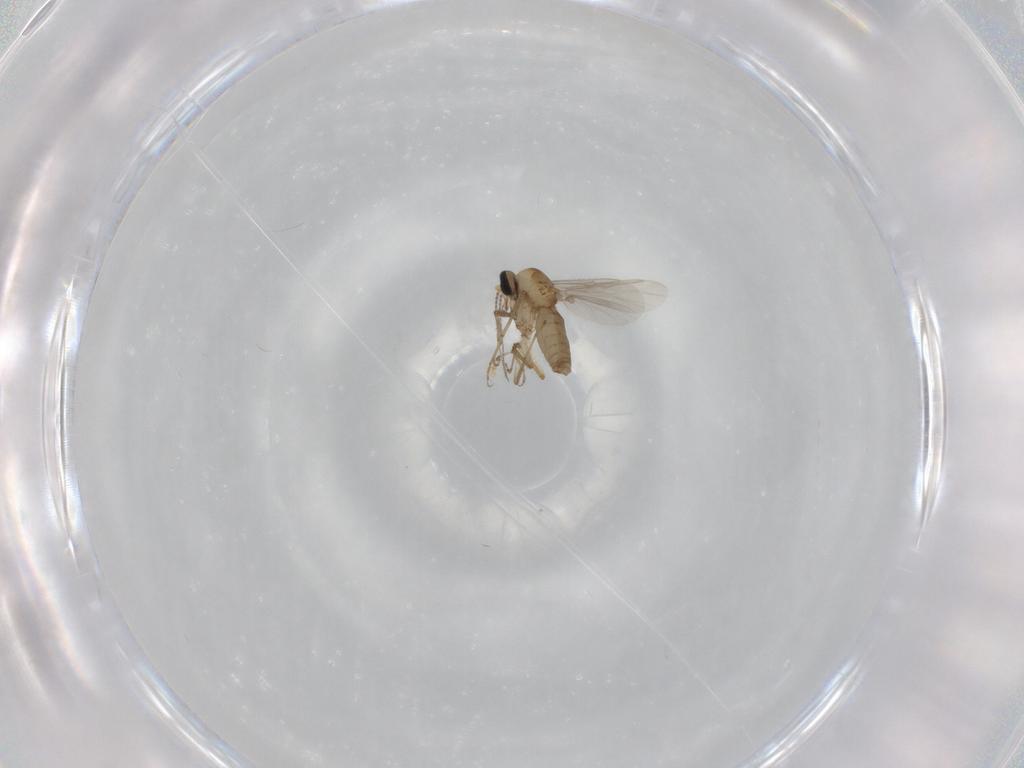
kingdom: Animalia
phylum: Arthropoda
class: Insecta
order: Diptera
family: Ceratopogonidae
